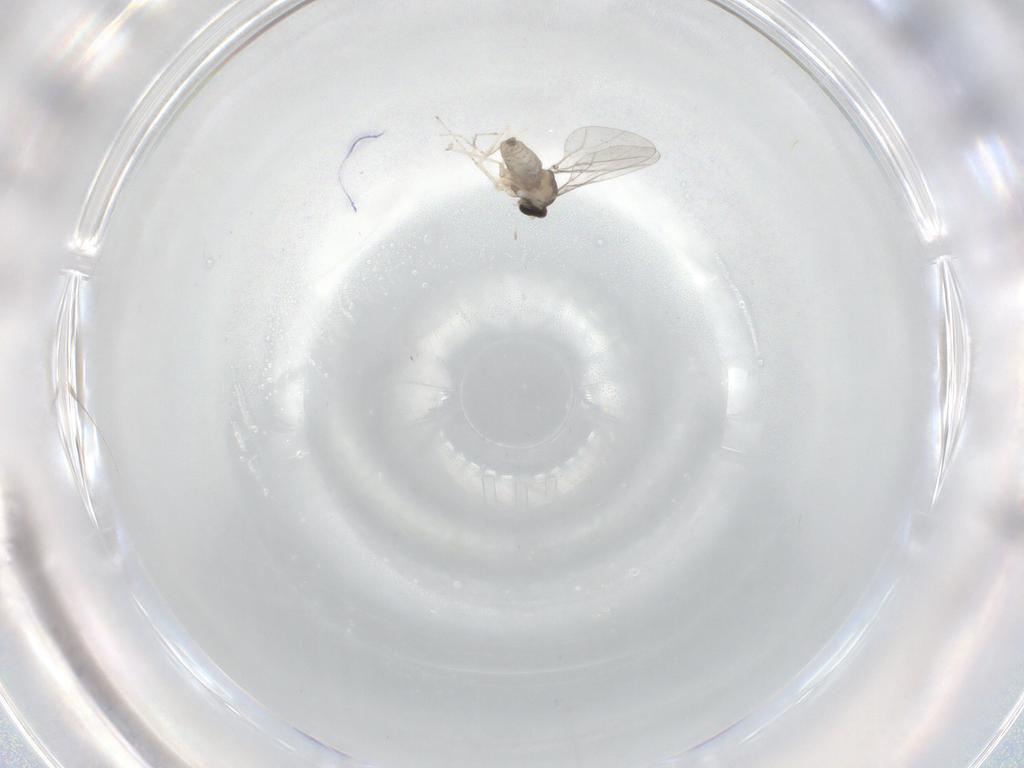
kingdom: Animalia
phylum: Arthropoda
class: Insecta
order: Diptera
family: Cecidomyiidae
